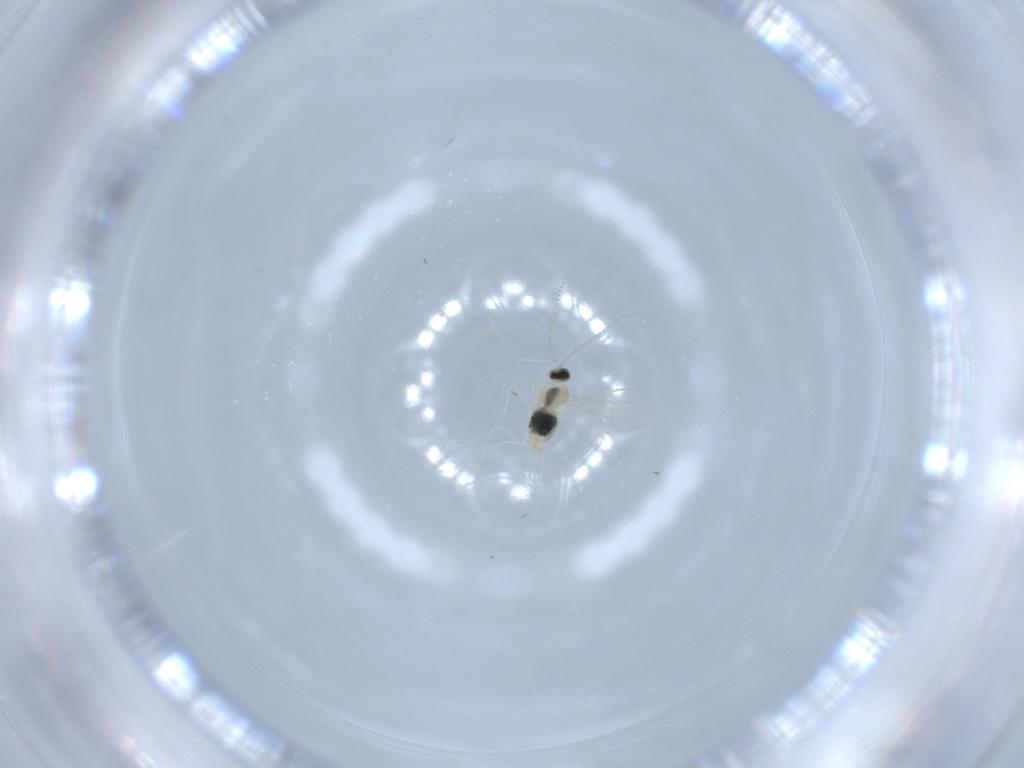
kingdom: Animalia
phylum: Arthropoda
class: Insecta
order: Diptera
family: Cecidomyiidae
